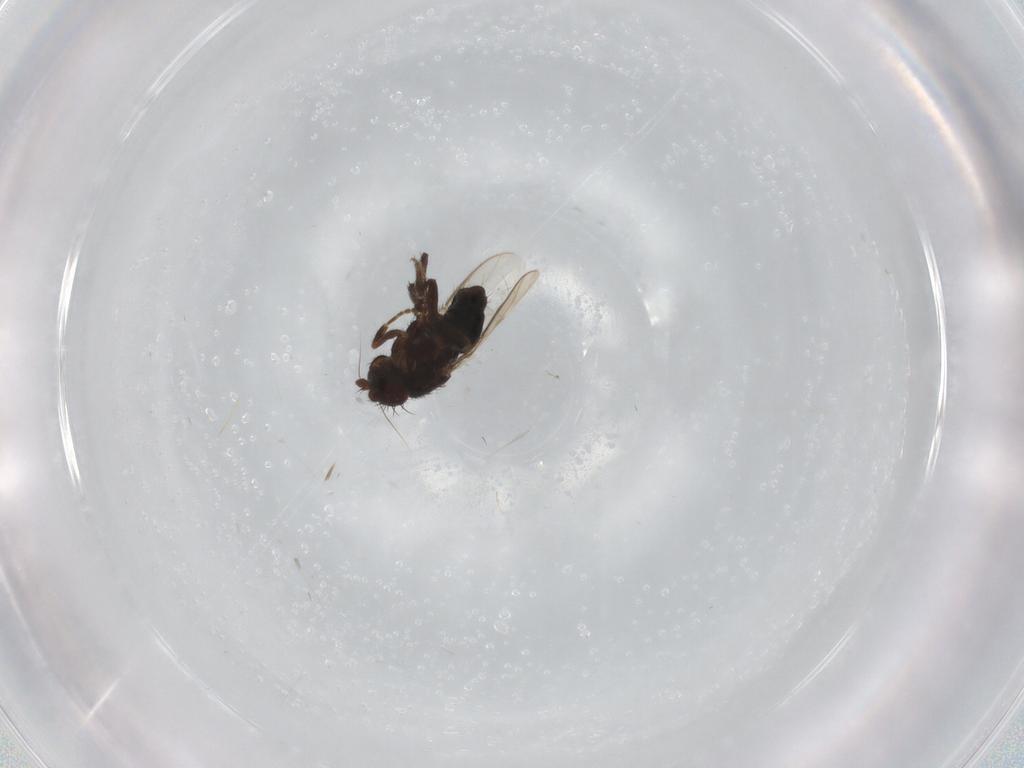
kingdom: Animalia
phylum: Arthropoda
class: Insecta
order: Diptera
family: Sphaeroceridae
